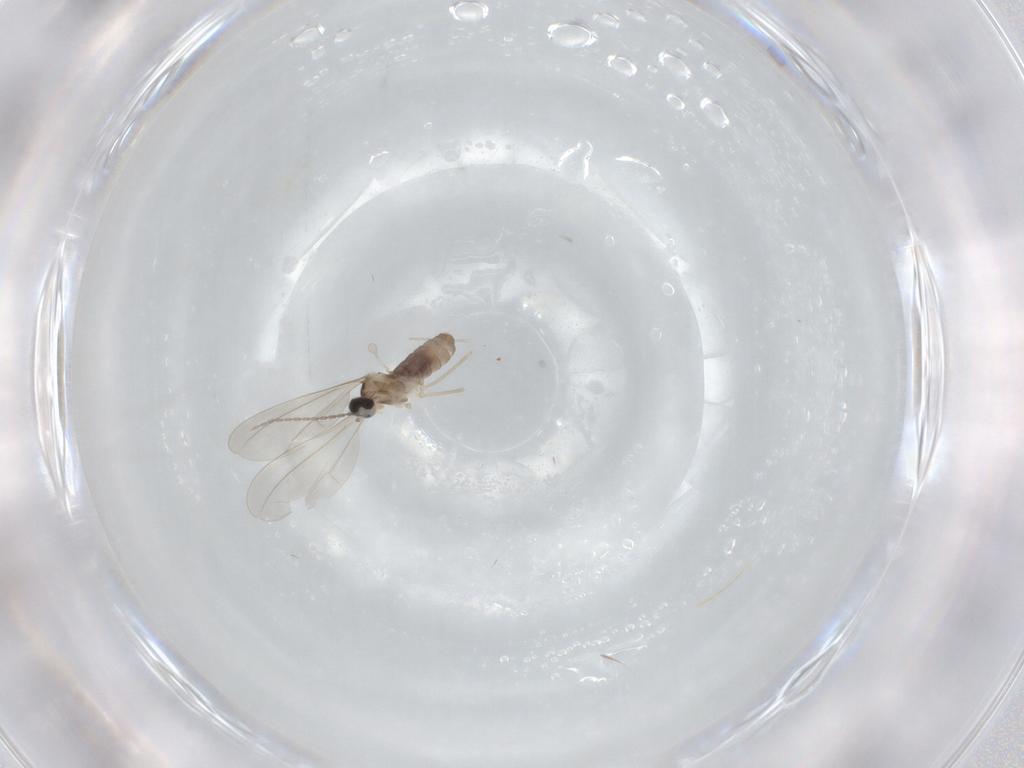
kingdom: Animalia
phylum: Arthropoda
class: Insecta
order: Diptera
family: Cecidomyiidae
